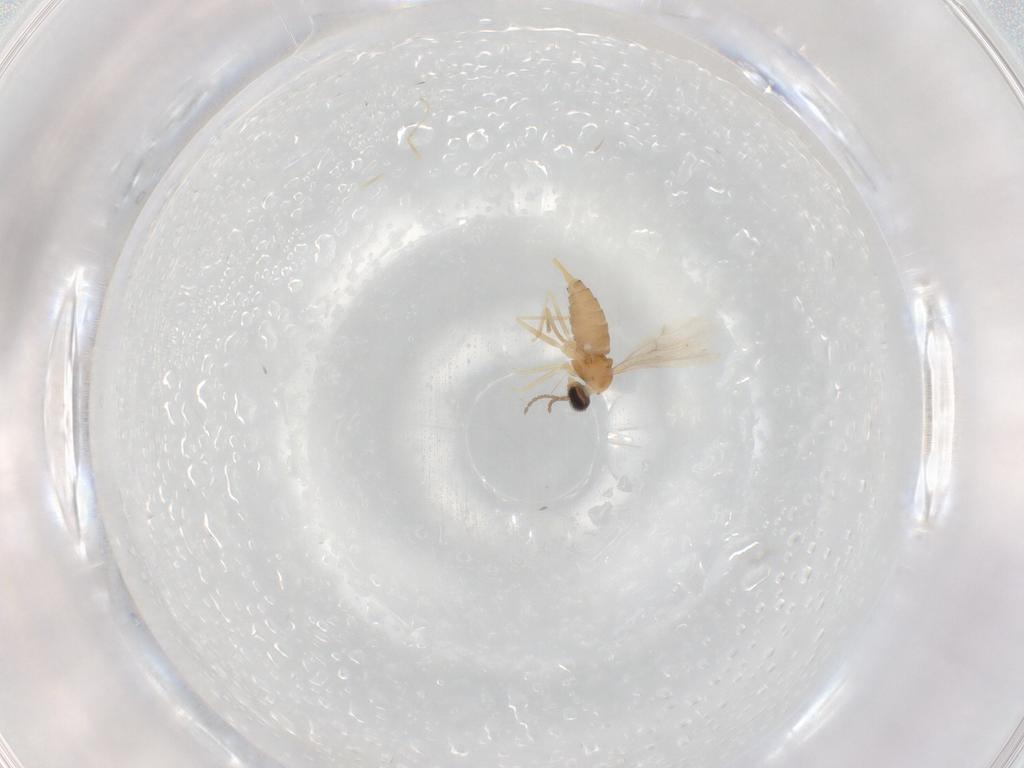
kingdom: Animalia
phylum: Arthropoda
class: Insecta
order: Diptera
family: Cecidomyiidae
